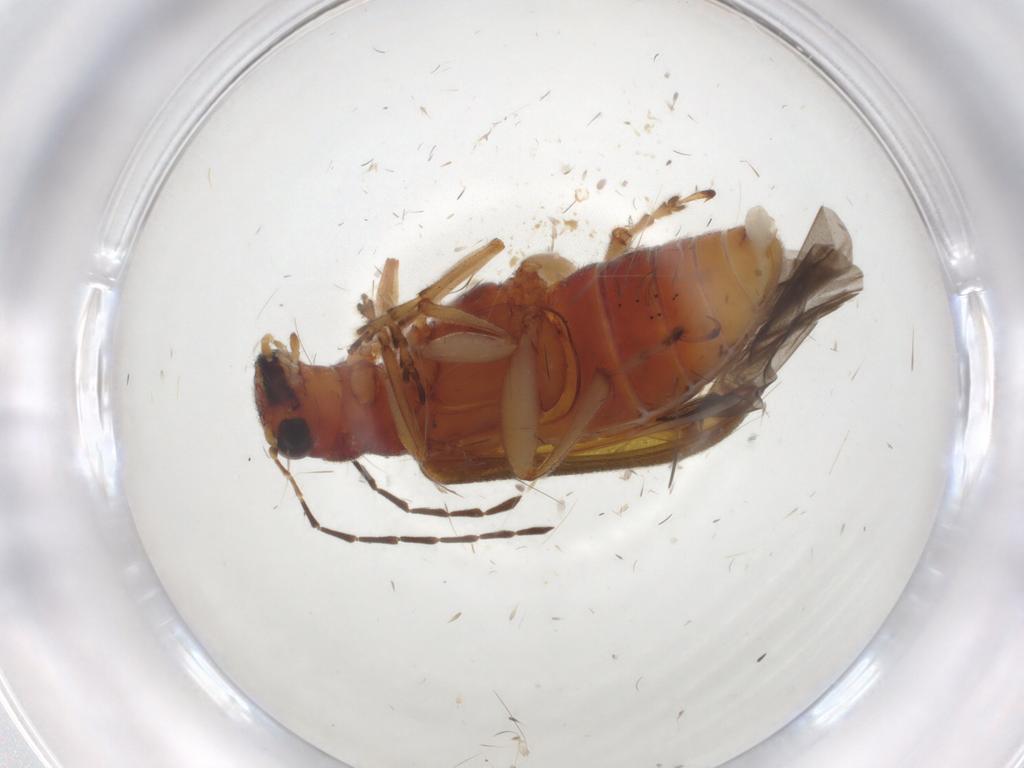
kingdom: Animalia
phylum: Arthropoda
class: Insecta
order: Coleoptera
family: Chrysomelidae
